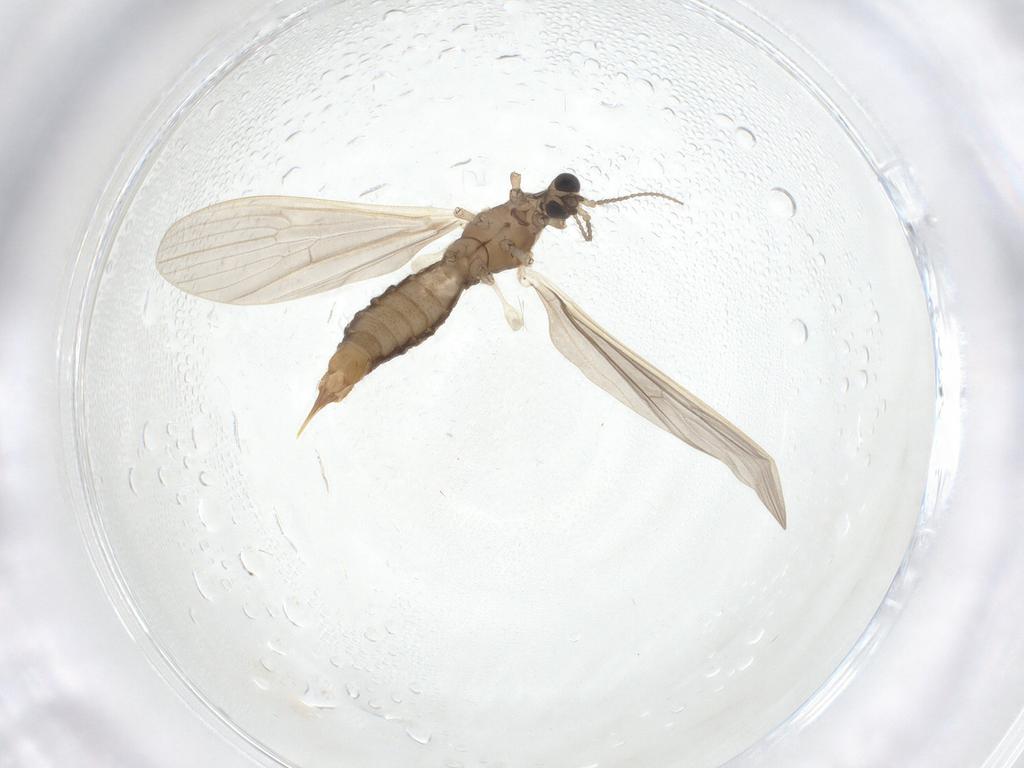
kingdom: Animalia
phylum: Arthropoda
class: Insecta
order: Diptera
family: Limoniidae
